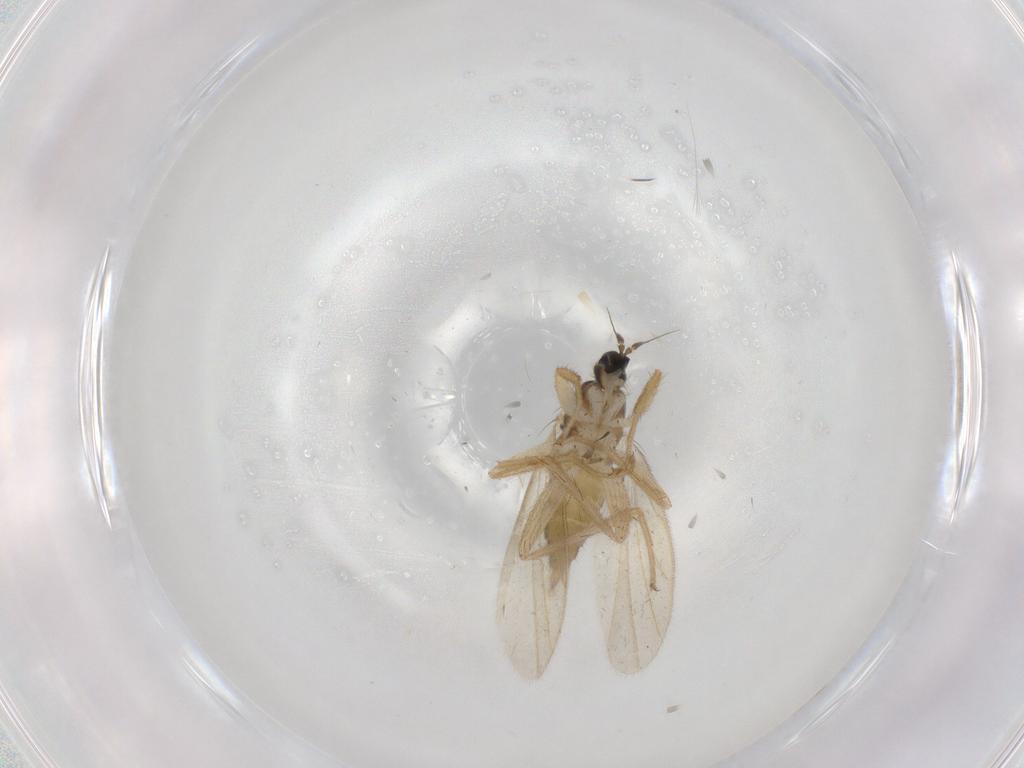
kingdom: Animalia
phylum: Arthropoda
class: Insecta
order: Diptera
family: Hybotidae
